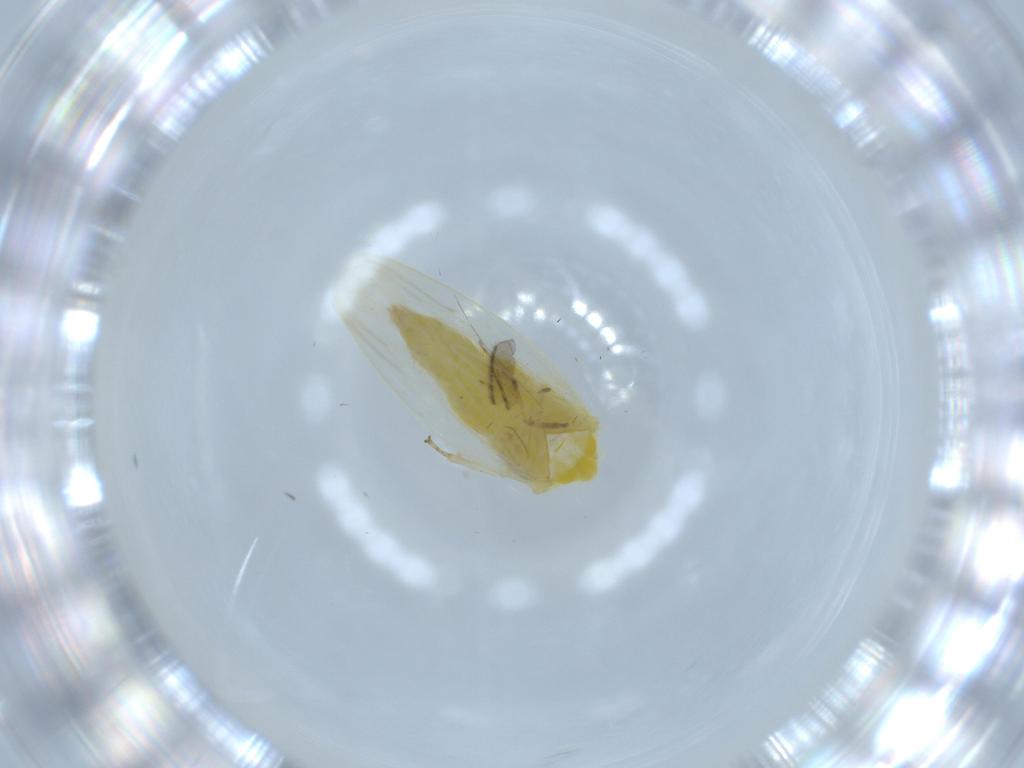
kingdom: Animalia
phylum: Arthropoda
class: Insecta
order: Hemiptera
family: Cicadellidae
